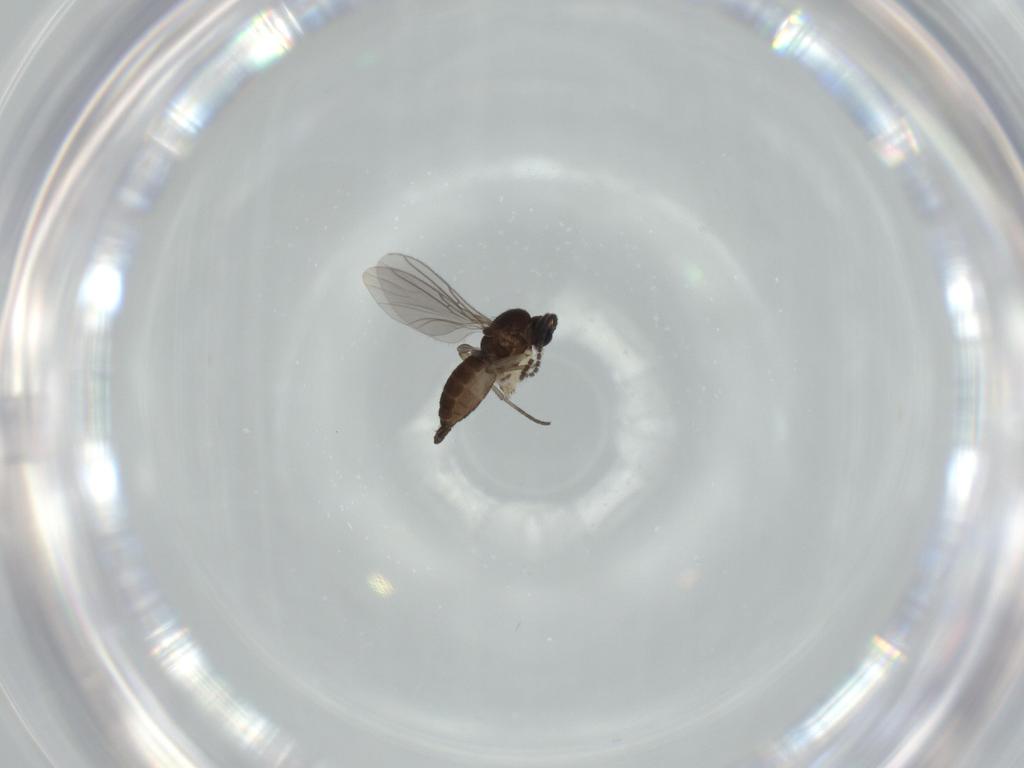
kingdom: Animalia
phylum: Arthropoda
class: Insecta
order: Diptera
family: Sciaridae
